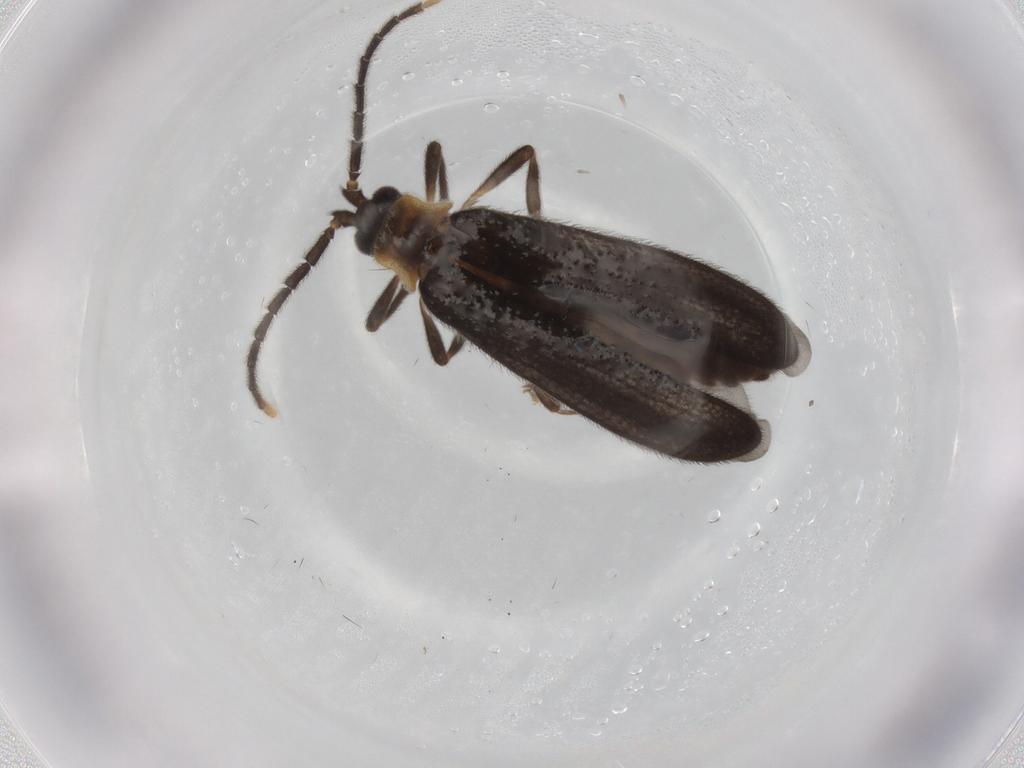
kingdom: Animalia
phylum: Arthropoda
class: Insecta
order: Coleoptera
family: Lycidae
